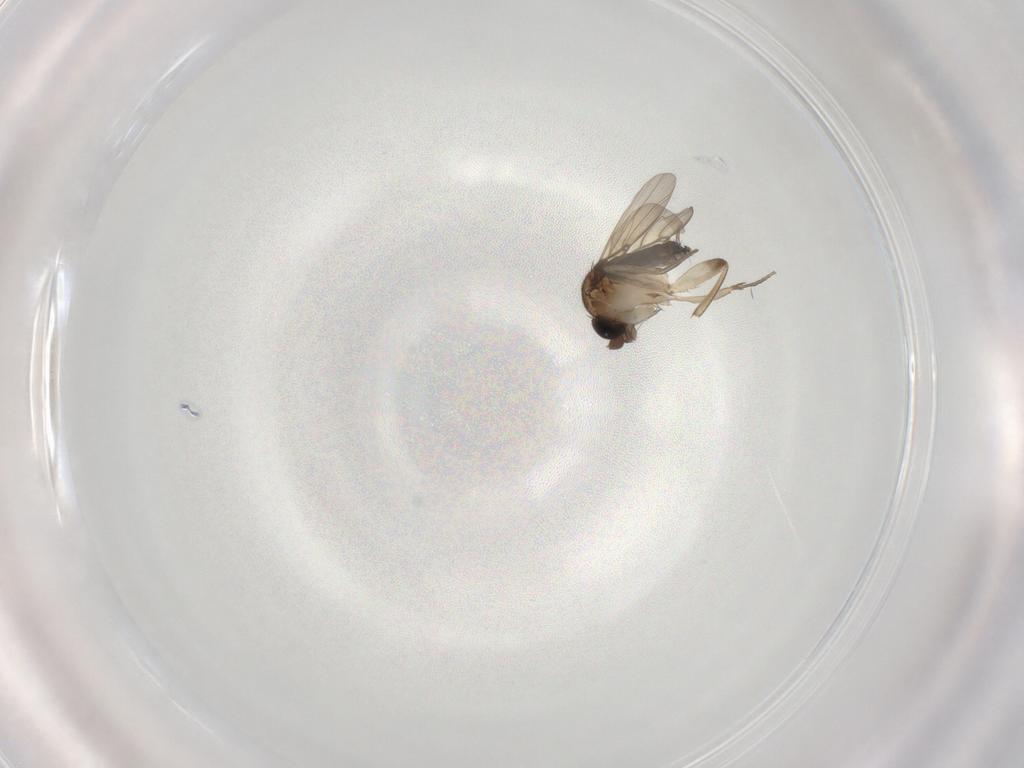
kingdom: Animalia
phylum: Arthropoda
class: Insecta
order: Diptera
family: Phoridae
